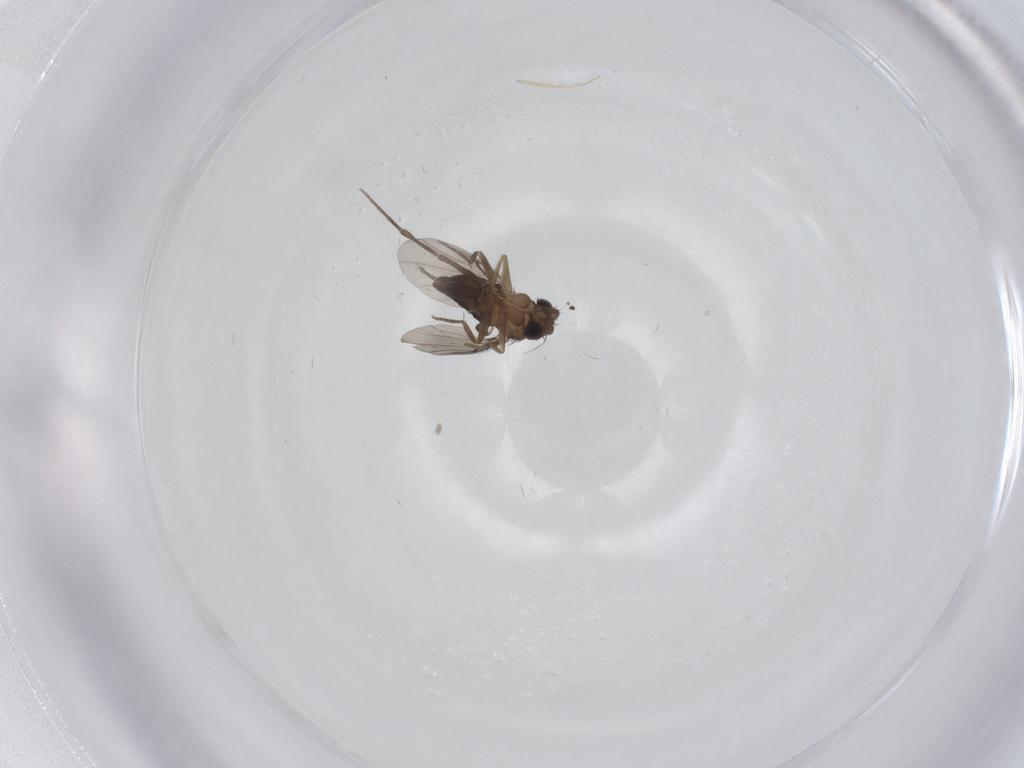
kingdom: Animalia
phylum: Arthropoda
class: Insecta
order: Diptera
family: Phoridae
